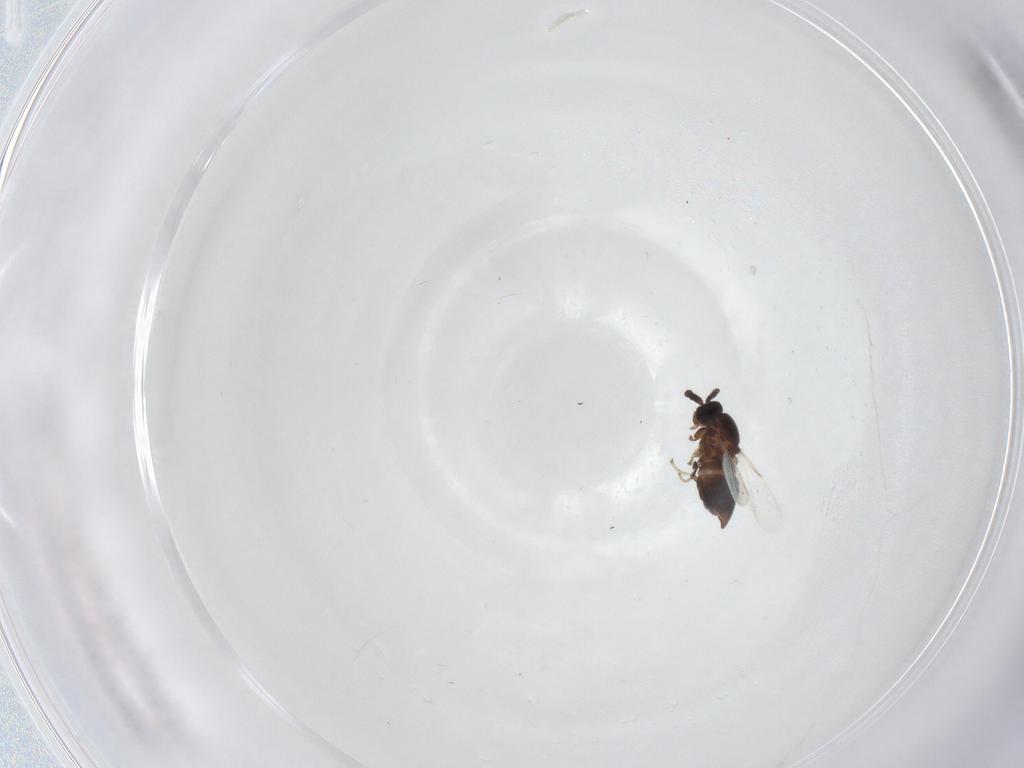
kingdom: Animalia
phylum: Arthropoda
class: Insecta
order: Diptera
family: Scatopsidae
